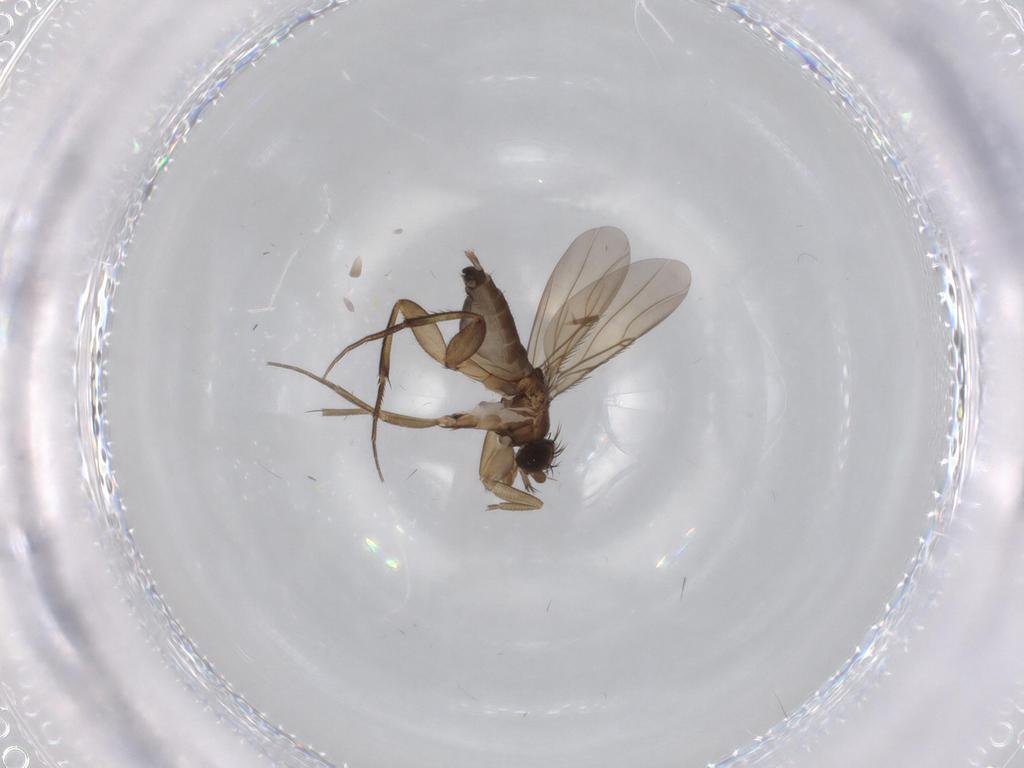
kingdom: Animalia
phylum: Arthropoda
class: Insecta
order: Diptera
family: Phoridae
